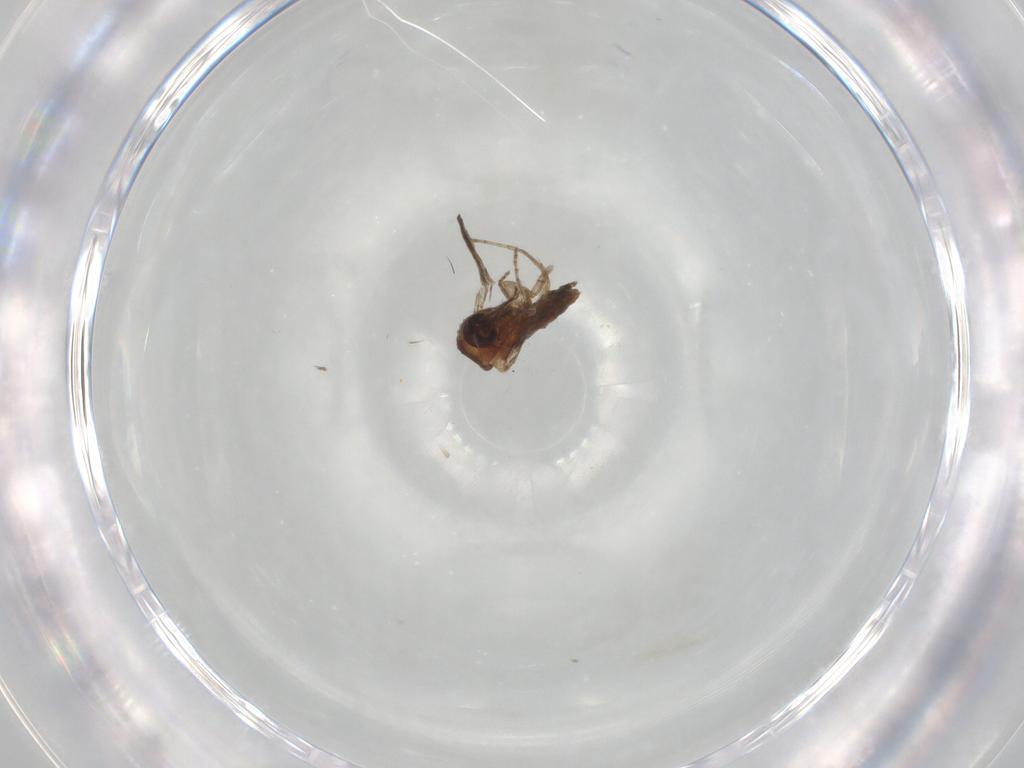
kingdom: Animalia
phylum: Arthropoda
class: Insecta
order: Diptera
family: Ceratopogonidae
